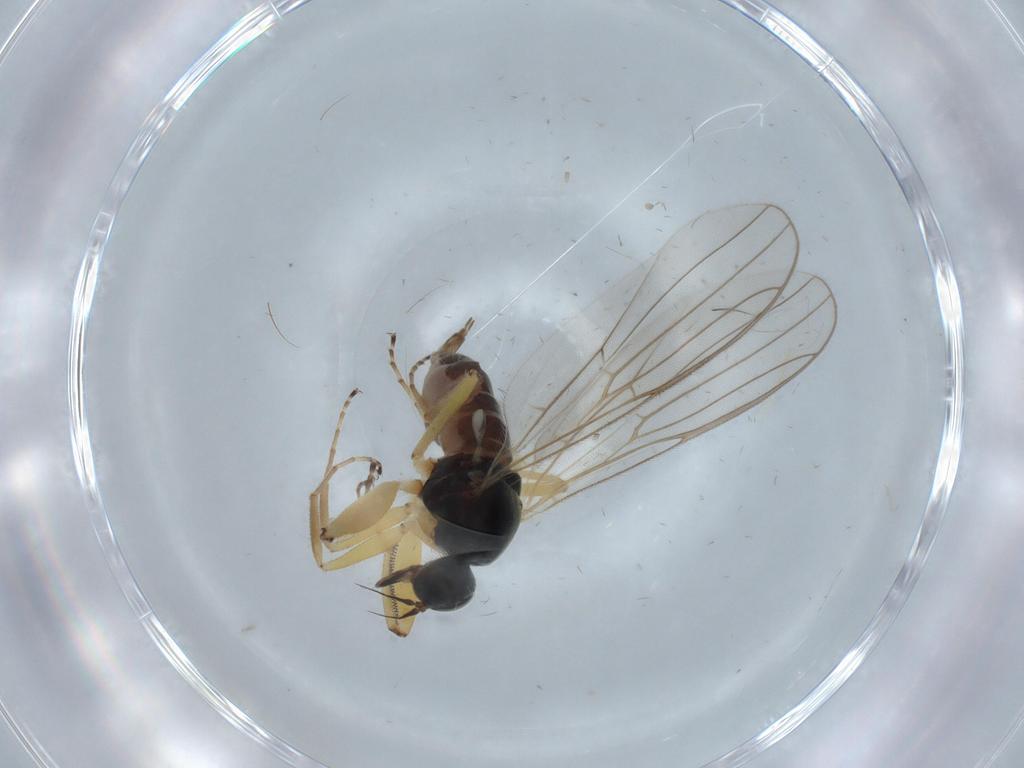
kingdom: Animalia
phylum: Arthropoda
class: Insecta
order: Diptera
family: Hybotidae
